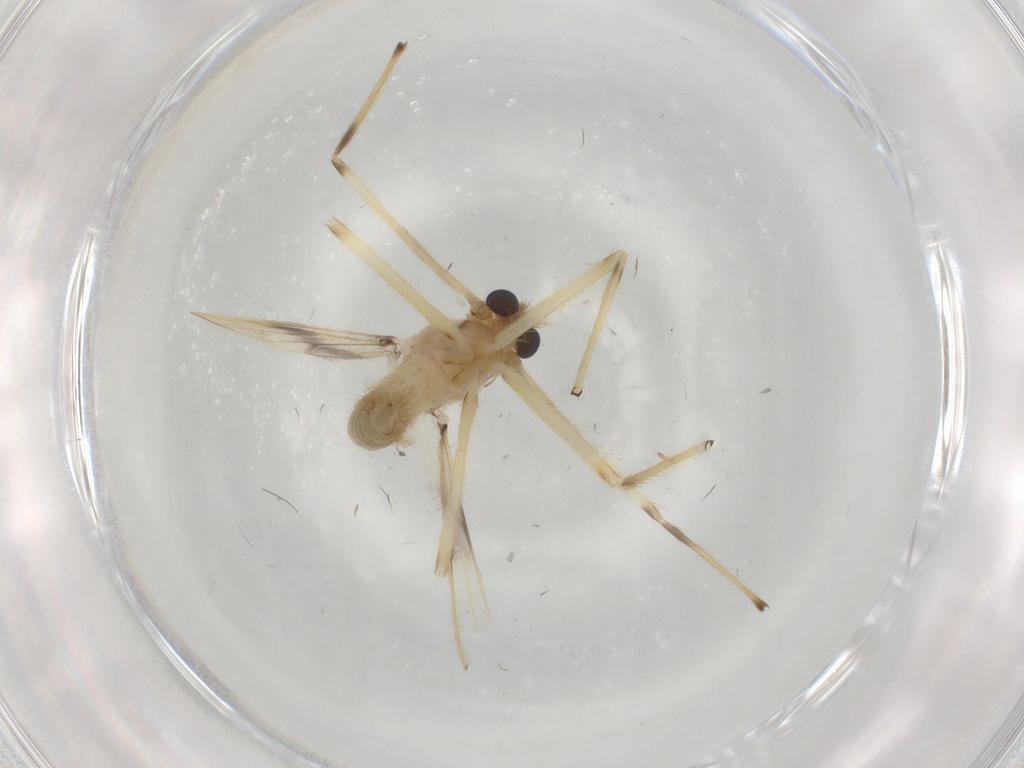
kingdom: Animalia
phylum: Arthropoda
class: Insecta
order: Diptera
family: Chironomidae
